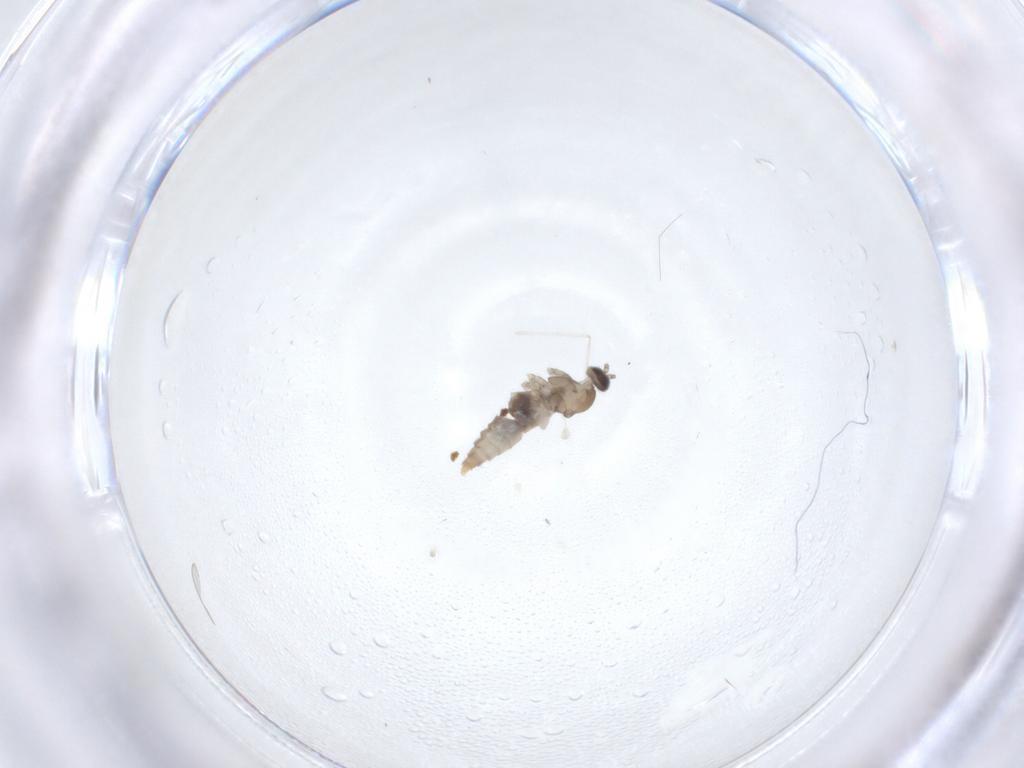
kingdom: Animalia
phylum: Arthropoda
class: Insecta
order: Diptera
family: Cecidomyiidae
